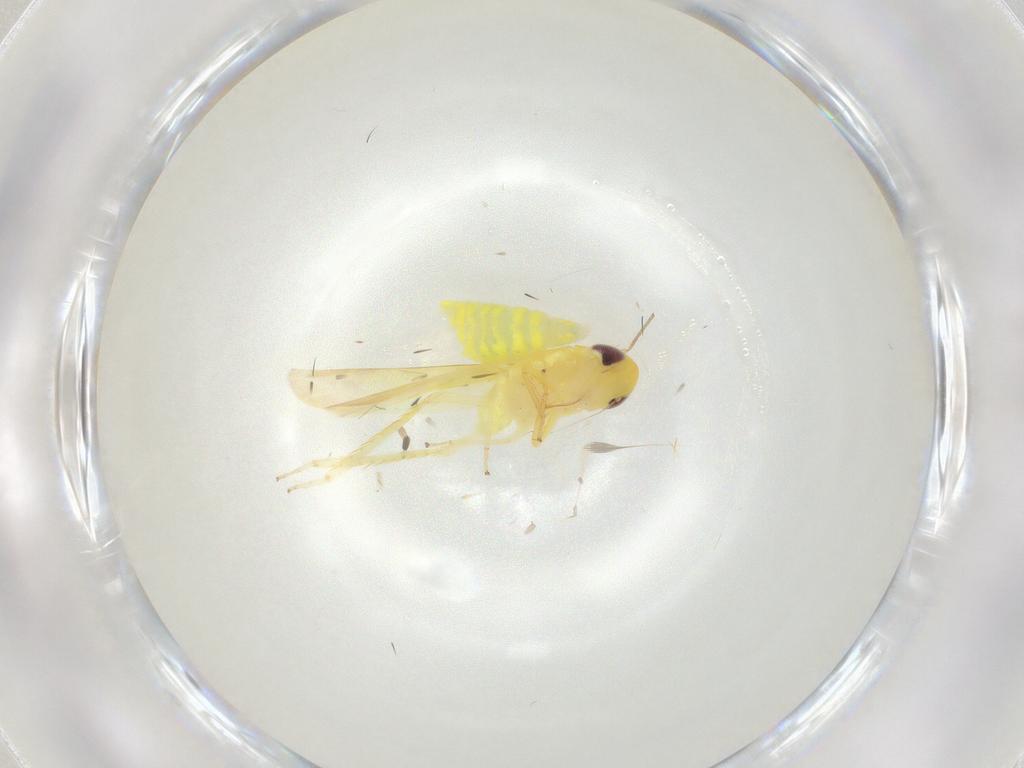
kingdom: Animalia
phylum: Arthropoda
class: Insecta
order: Hemiptera
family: Cicadellidae
